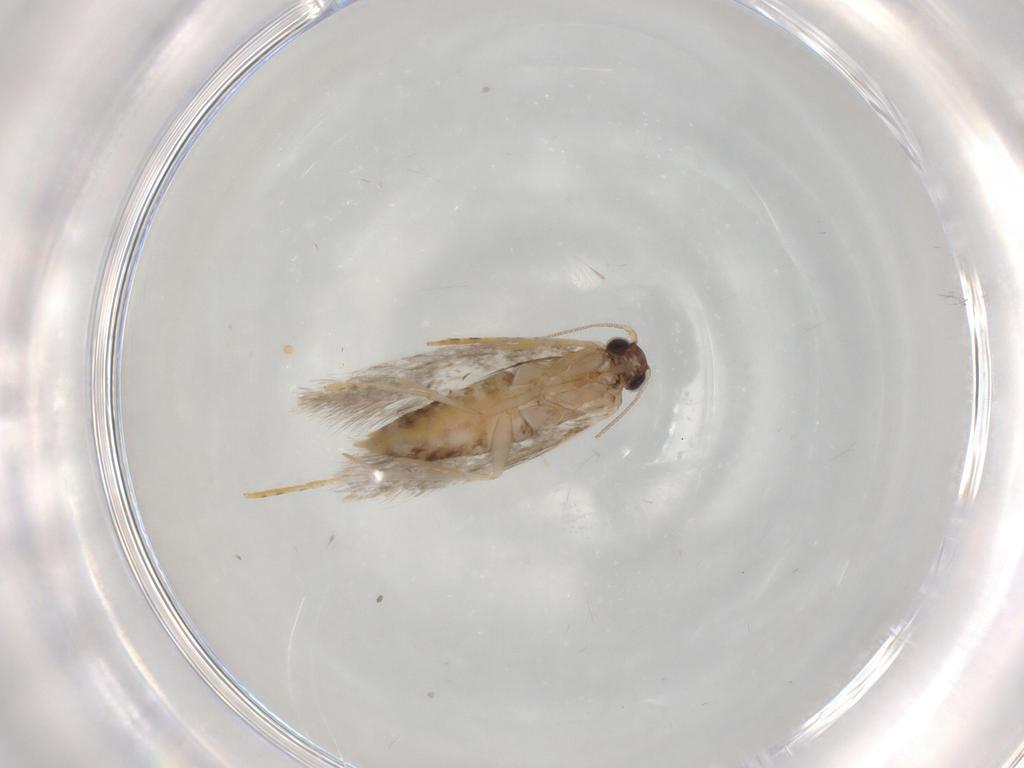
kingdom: Animalia
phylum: Arthropoda
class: Insecta
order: Lepidoptera
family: Tineidae
